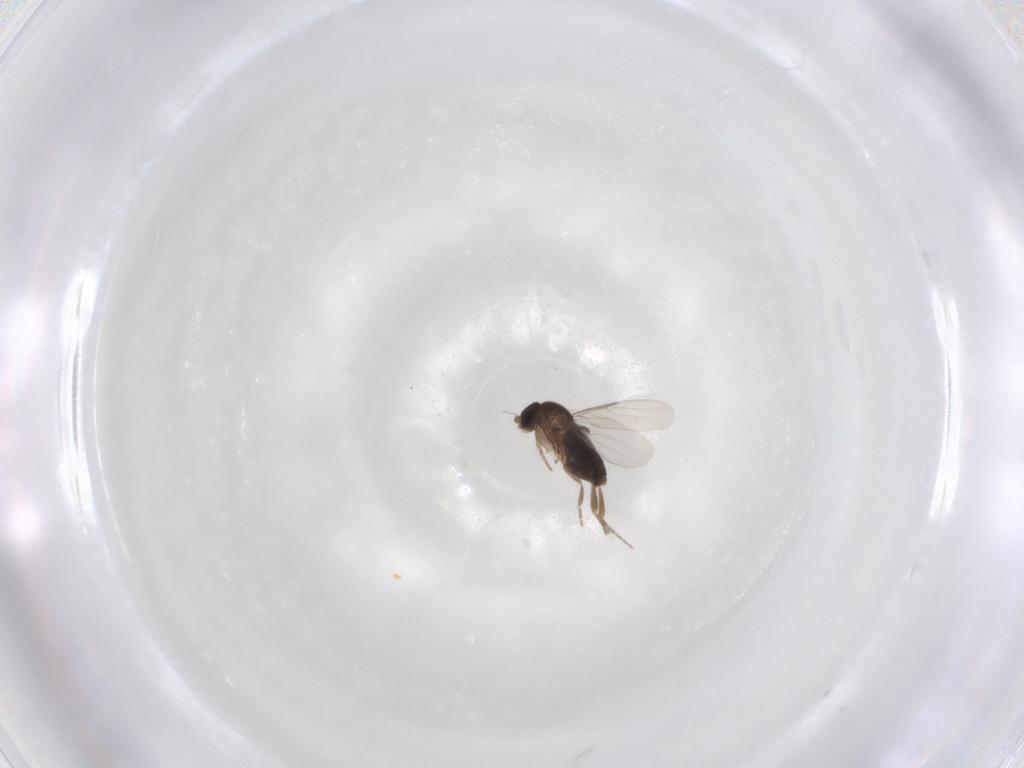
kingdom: Animalia
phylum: Arthropoda
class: Insecta
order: Diptera
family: Phoridae
